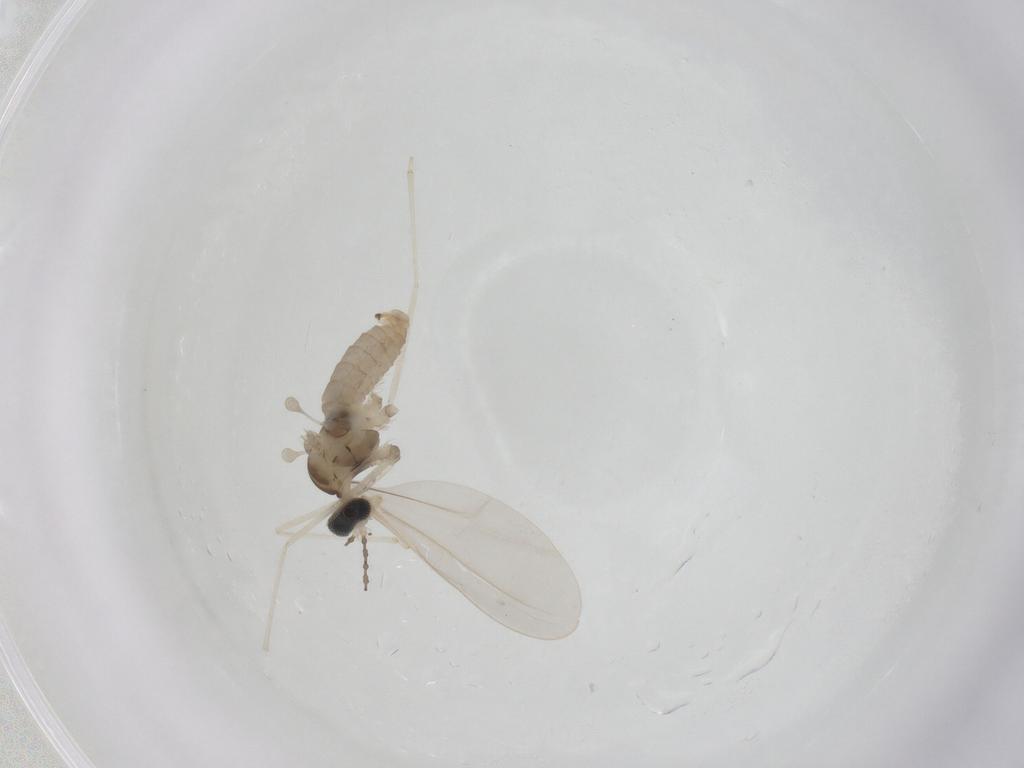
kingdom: Animalia
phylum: Arthropoda
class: Insecta
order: Diptera
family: Cecidomyiidae
